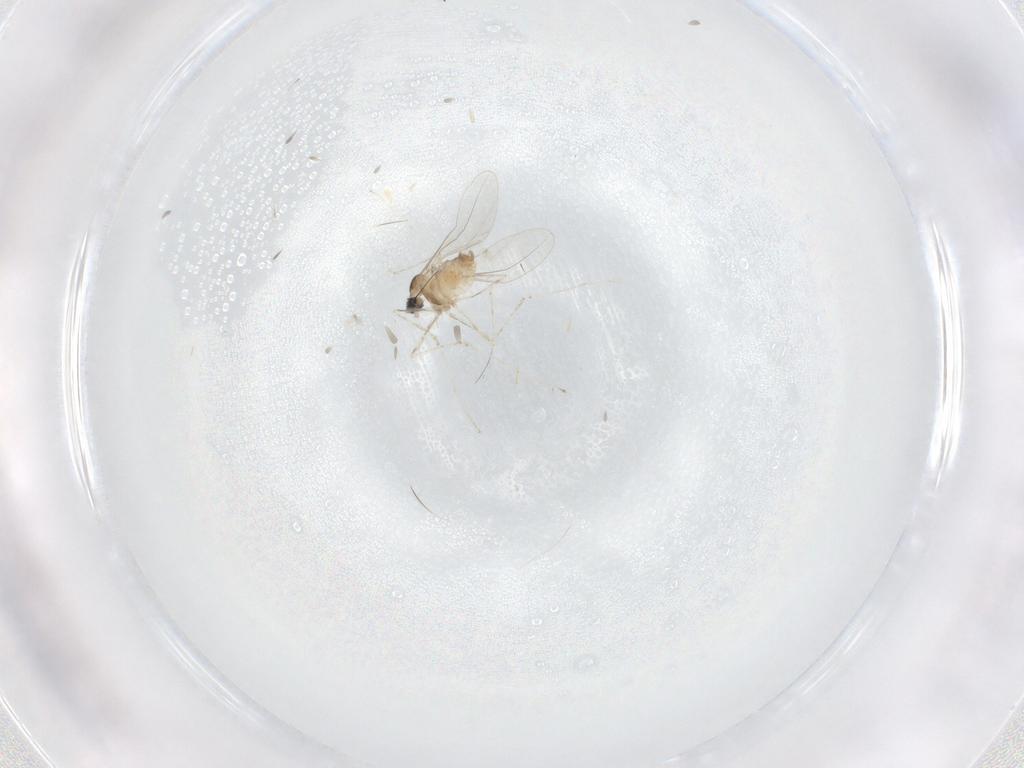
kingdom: Animalia
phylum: Arthropoda
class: Insecta
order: Diptera
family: Cecidomyiidae
